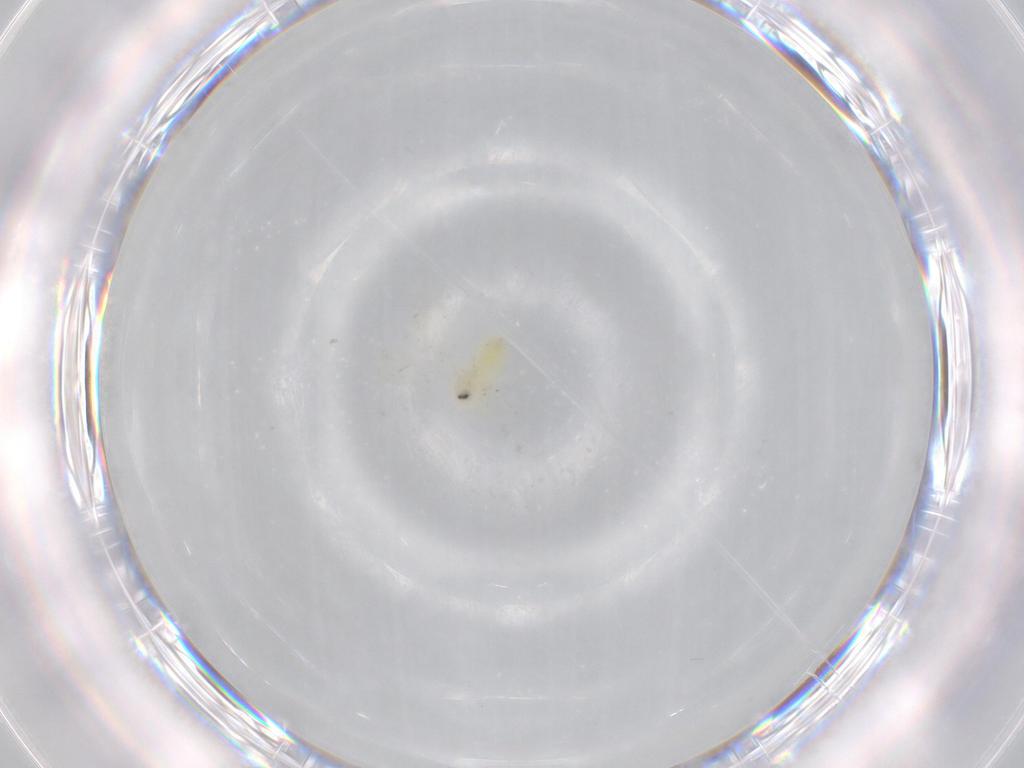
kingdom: Animalia
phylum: Arthropoda
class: Insecta
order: Hemiptera
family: Aleyrodidae
